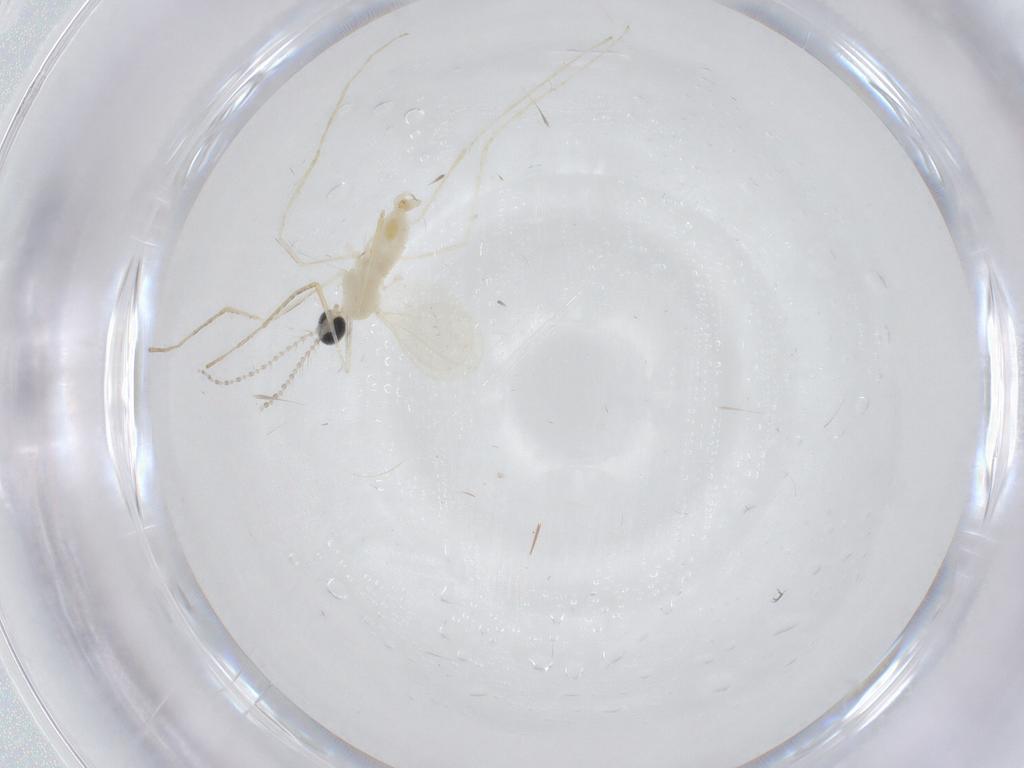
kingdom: Animalia
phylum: Arthropoda
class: Insecta
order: Diptera
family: Cecidomyiidae
